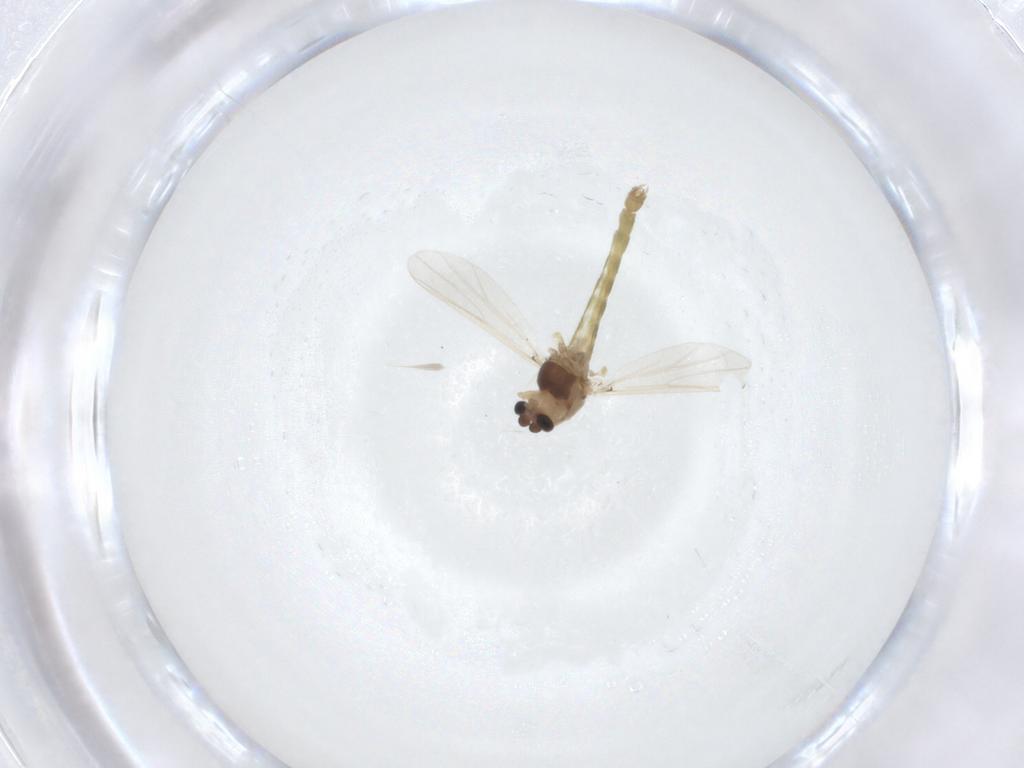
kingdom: Animalia
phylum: Arthropoda
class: Insecta
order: Diptera
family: Chironomidae
